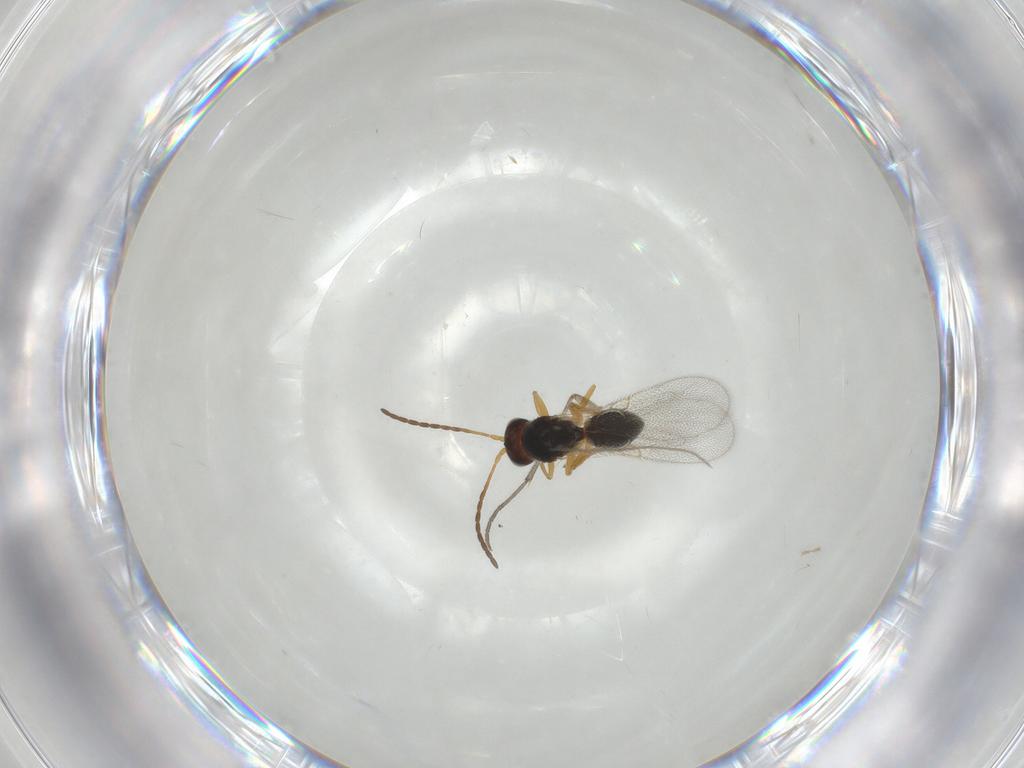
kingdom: Animalia
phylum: Arthropoda
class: Insecta
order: Hymenoptera
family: Figitidae
